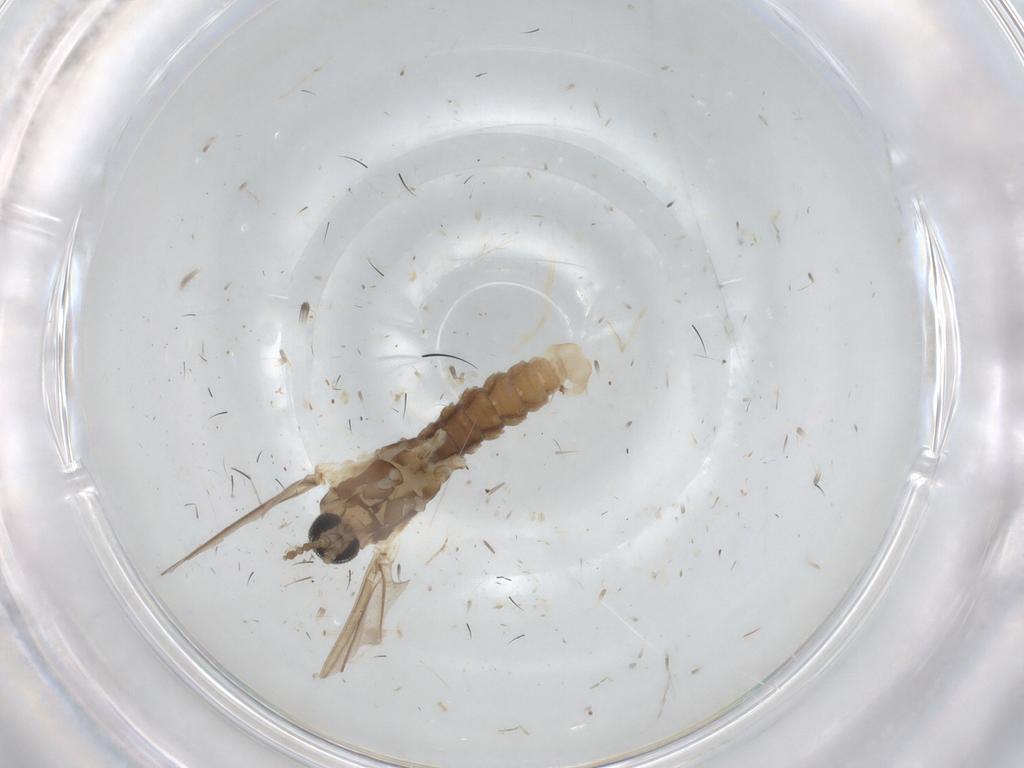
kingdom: Animalia
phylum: Arthropoda
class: Insecta
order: Diptera
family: Cecidomyiidae
